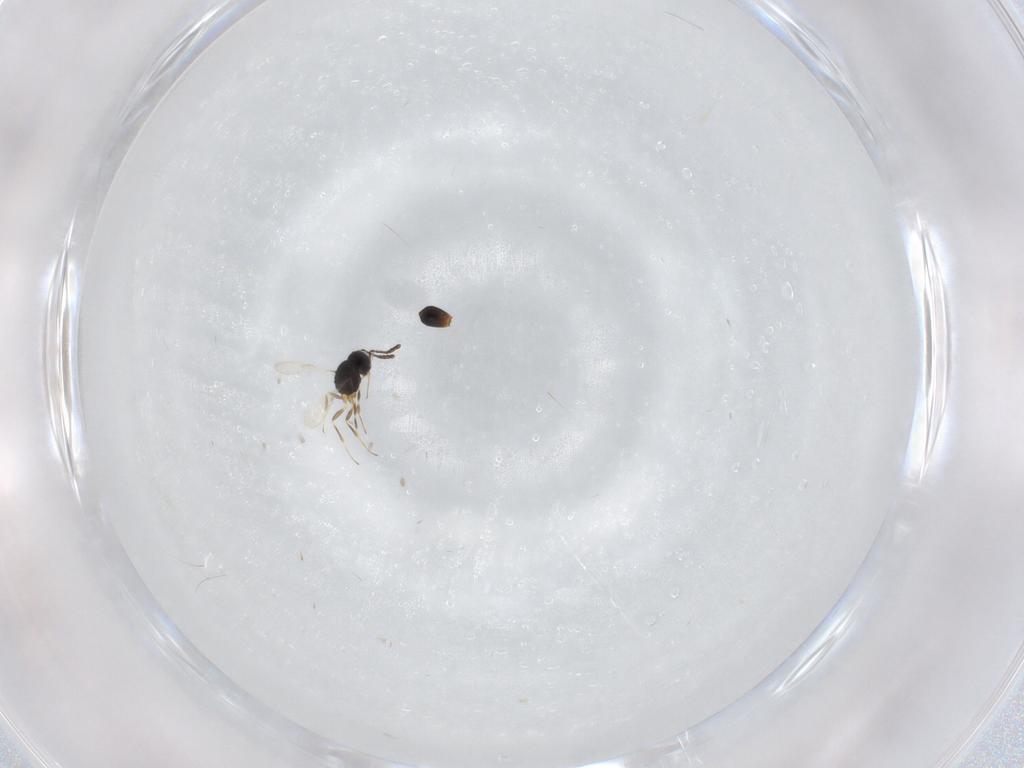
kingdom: Animalia
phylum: Arthropoda
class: Insecta
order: Hymenoptera
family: Scelionidae
